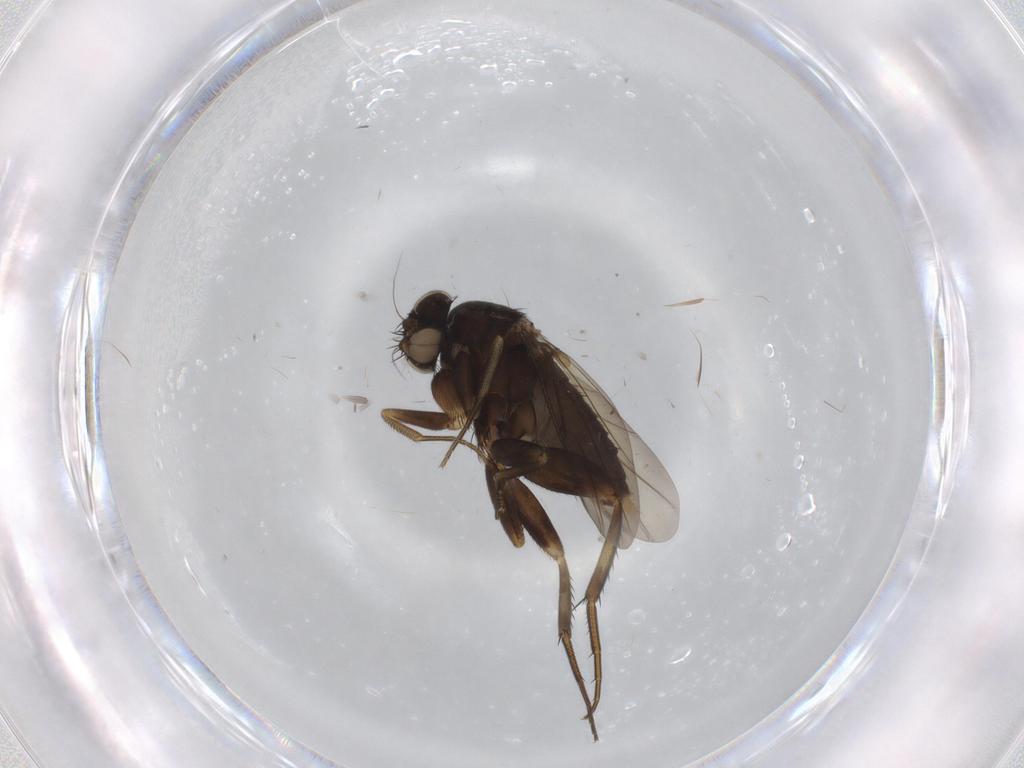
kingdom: Animalia
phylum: Arthropoda
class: Insecta
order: Diptera
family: Phoridae
